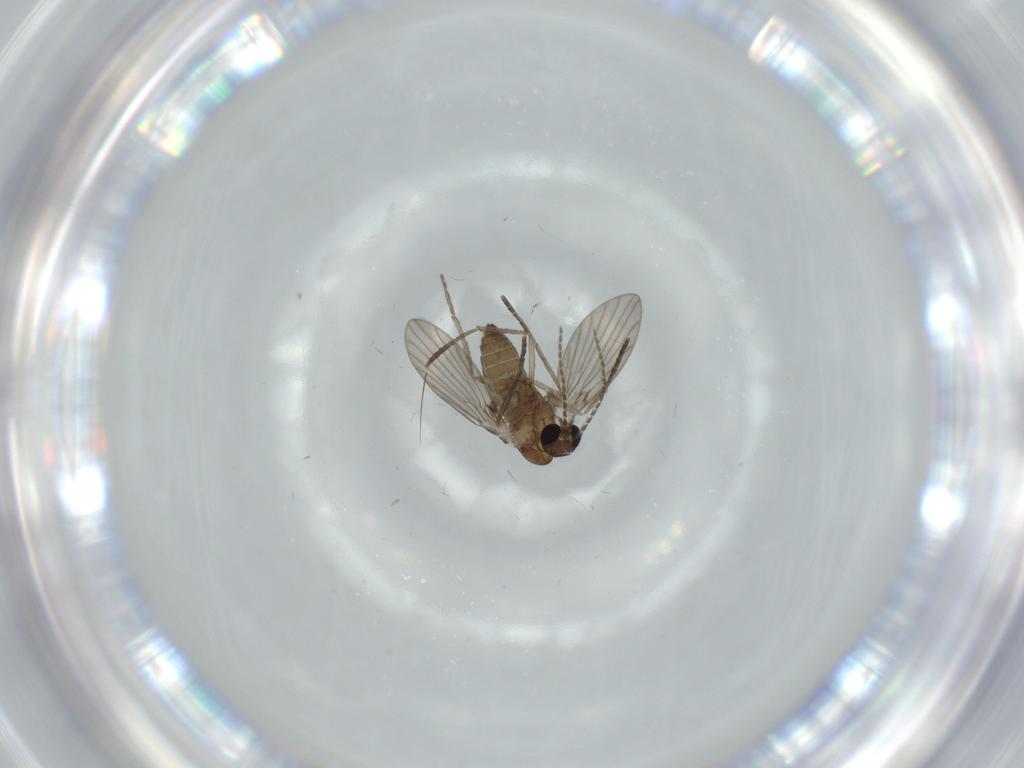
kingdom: Animalia
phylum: Arthropoda
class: Insecta
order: Diptera
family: Psychodidae
